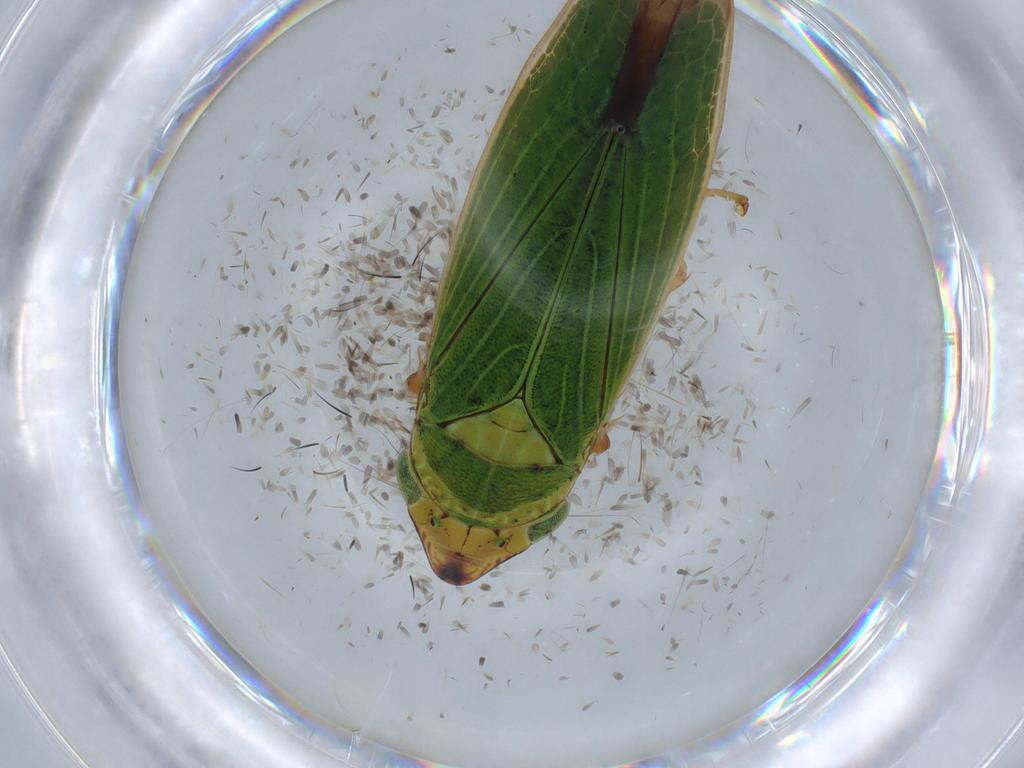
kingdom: Animalia
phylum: Arthropoda
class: Insecta
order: Hemiptera
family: Cicadellidae
